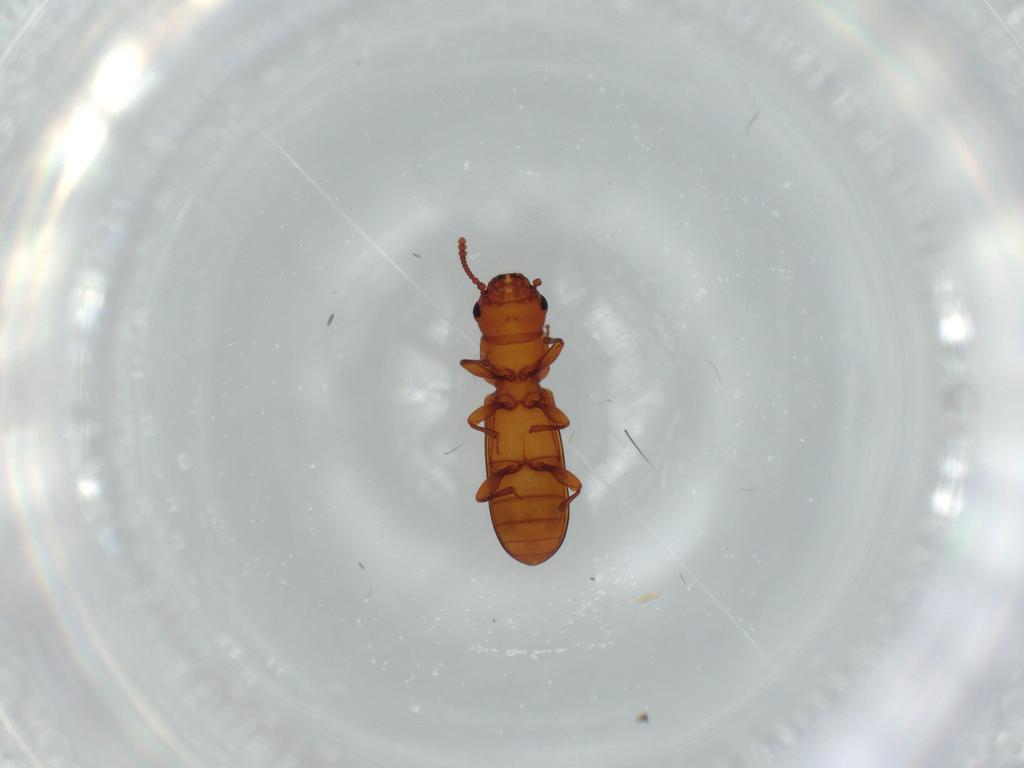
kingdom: Animalia
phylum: Arthropoda
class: Insecta
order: Coleoptera
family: Salpingidae
